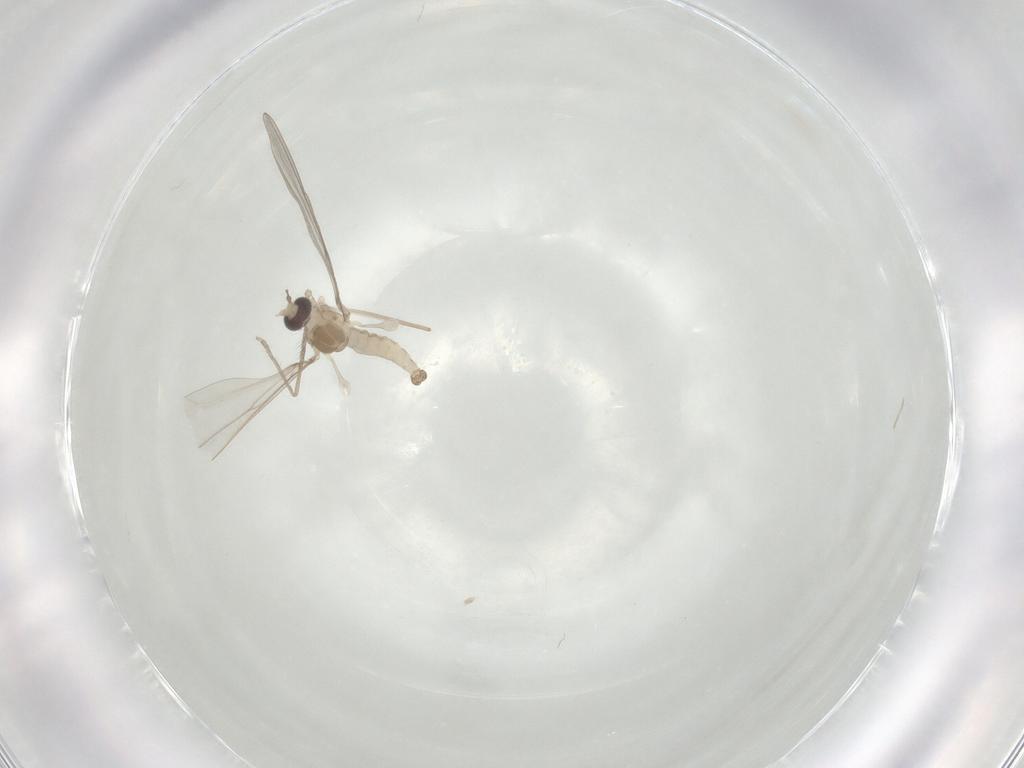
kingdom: Animalia
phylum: Arthropoda
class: Insecta
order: Diptera
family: Cecidomyiidae
